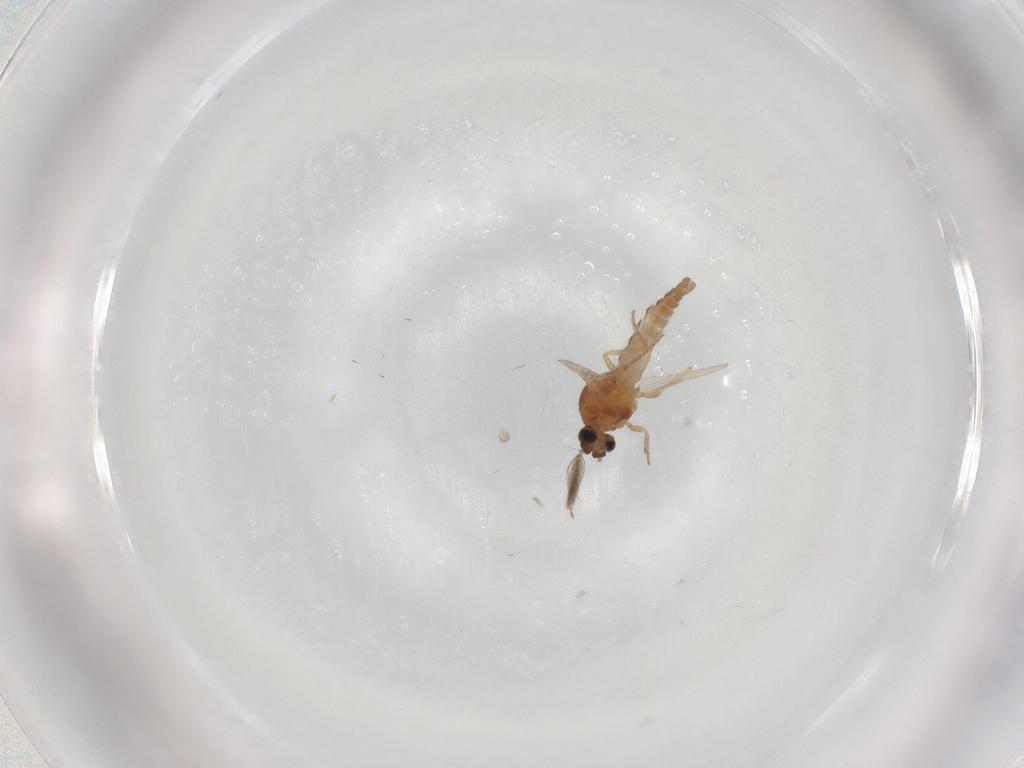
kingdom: Animalia
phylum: Arthropoda
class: Insecta
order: Diptera
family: Ceratopogonidae
